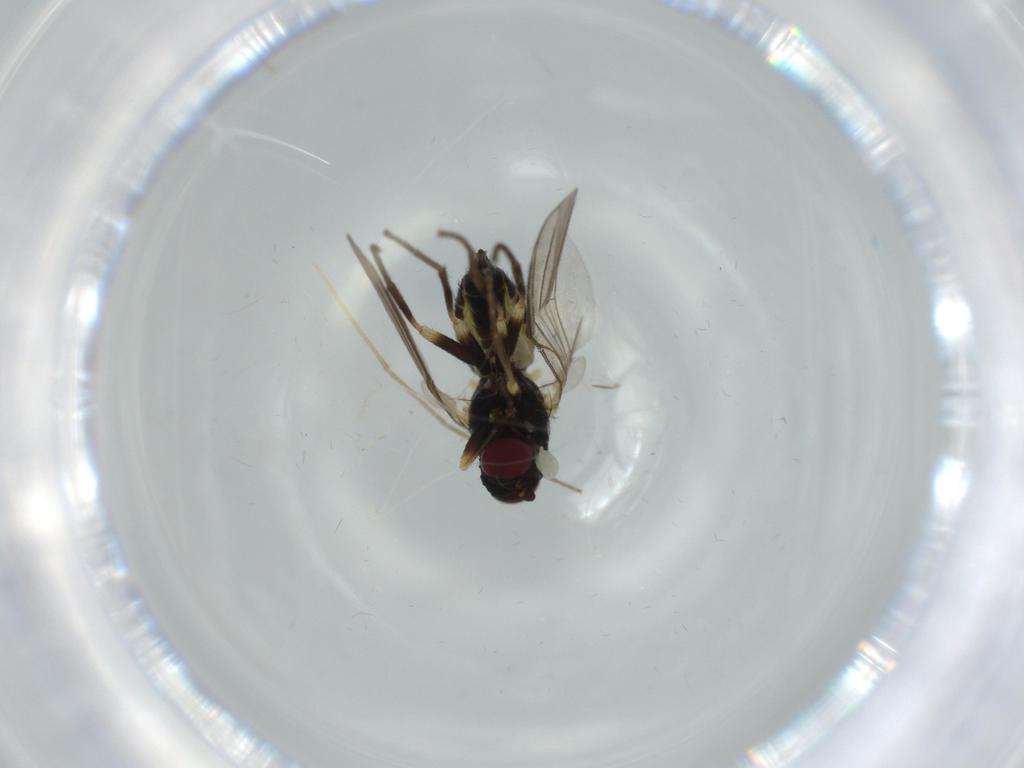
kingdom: Animalia
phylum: Arthropoda
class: Insecta
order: Diptera
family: Agromyzidae
